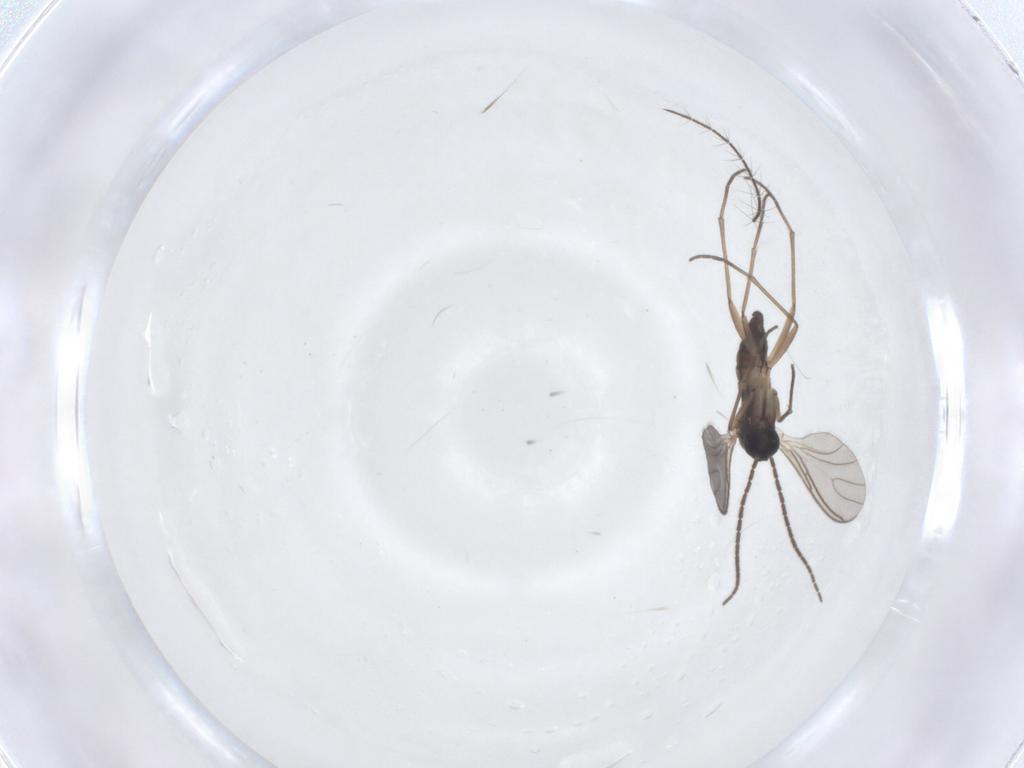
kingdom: Animalia
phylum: Arthropoda
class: Insecta
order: Diptera
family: Sciaridae
